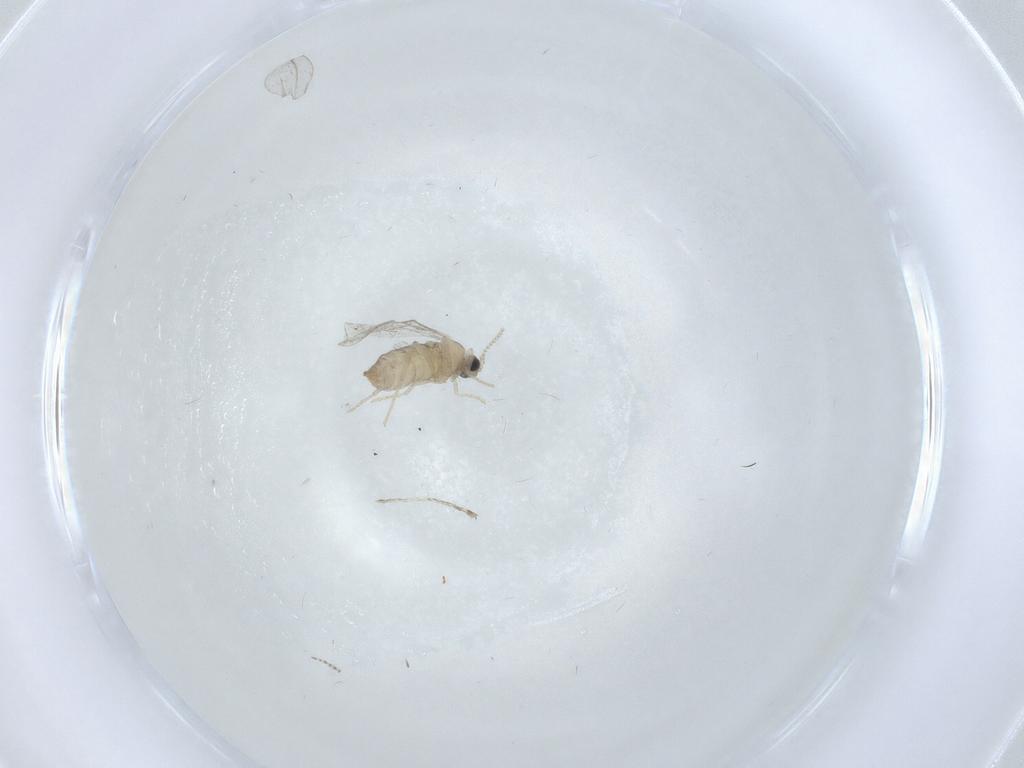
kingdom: Animalia
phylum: Arthropoda
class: Insecta
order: Diptera
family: Cecidomyiidae
